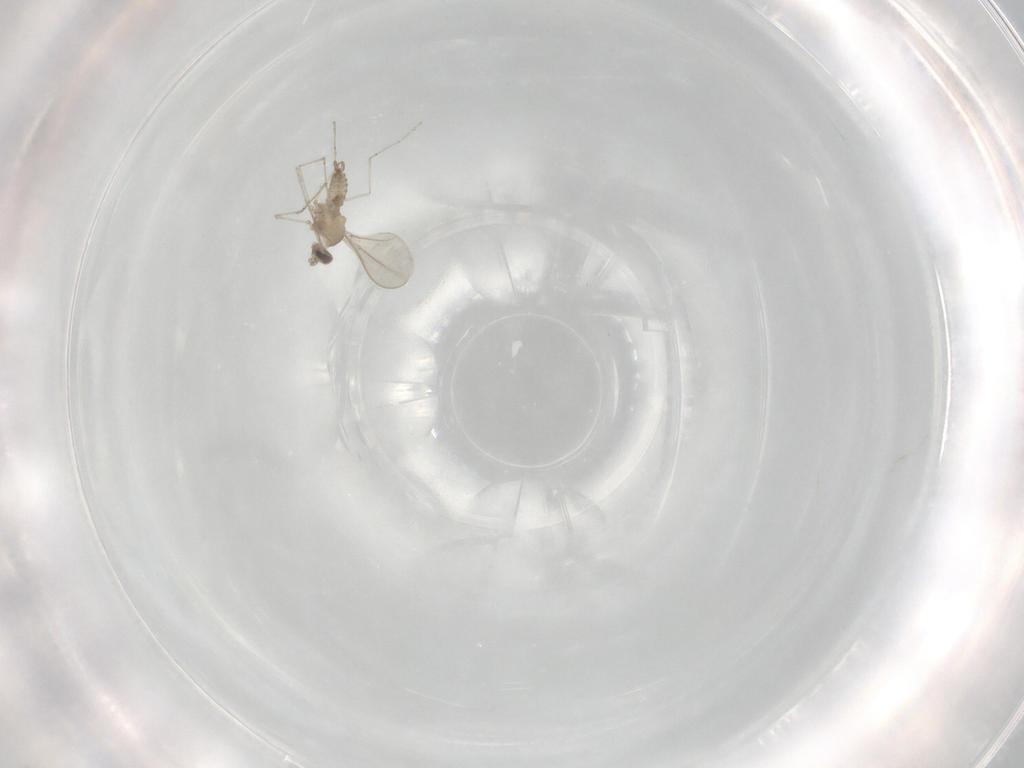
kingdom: Animalia
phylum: Arthropoda
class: Insecta
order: Diptera
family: Cecidomyiidae
